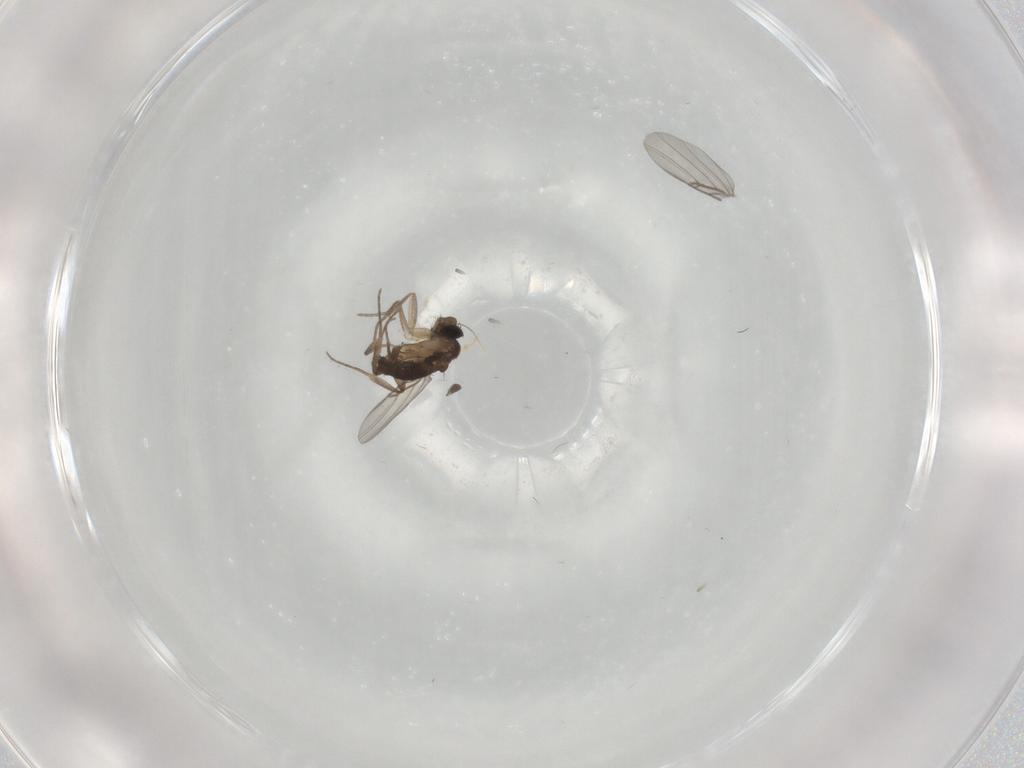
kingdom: Animalia
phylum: Arthropoda
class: Insecta
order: Diptera
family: Phoridae
